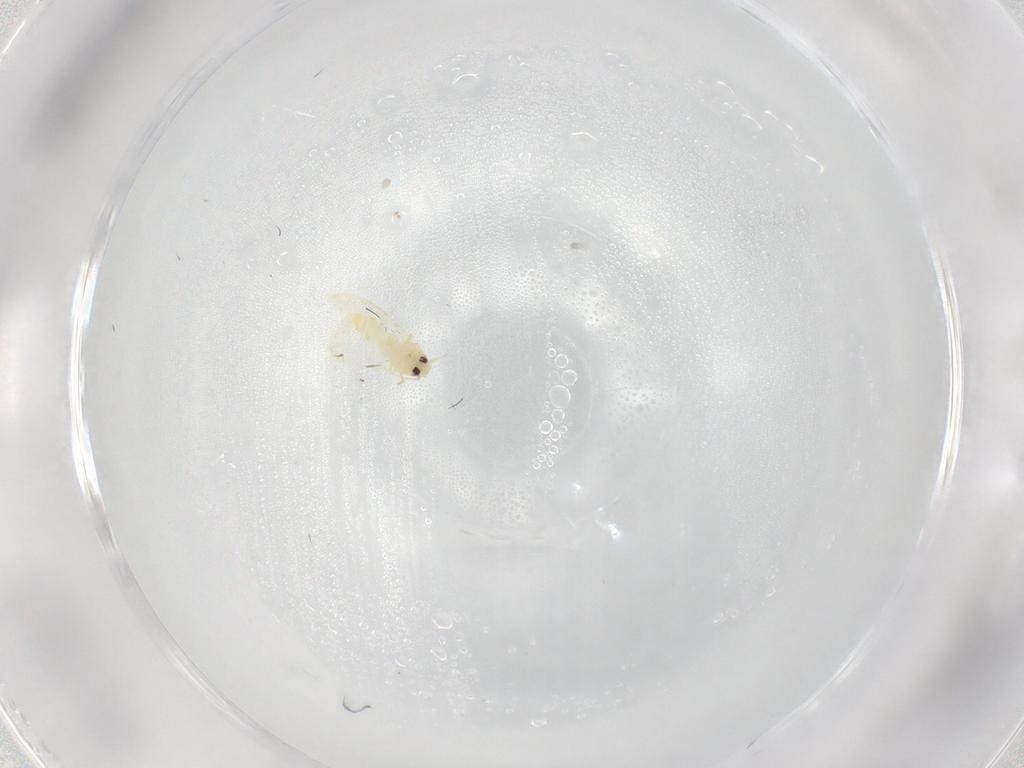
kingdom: Animalia
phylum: Arthropoda
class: Insecta
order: Hemiptera
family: Aleyrodidae
